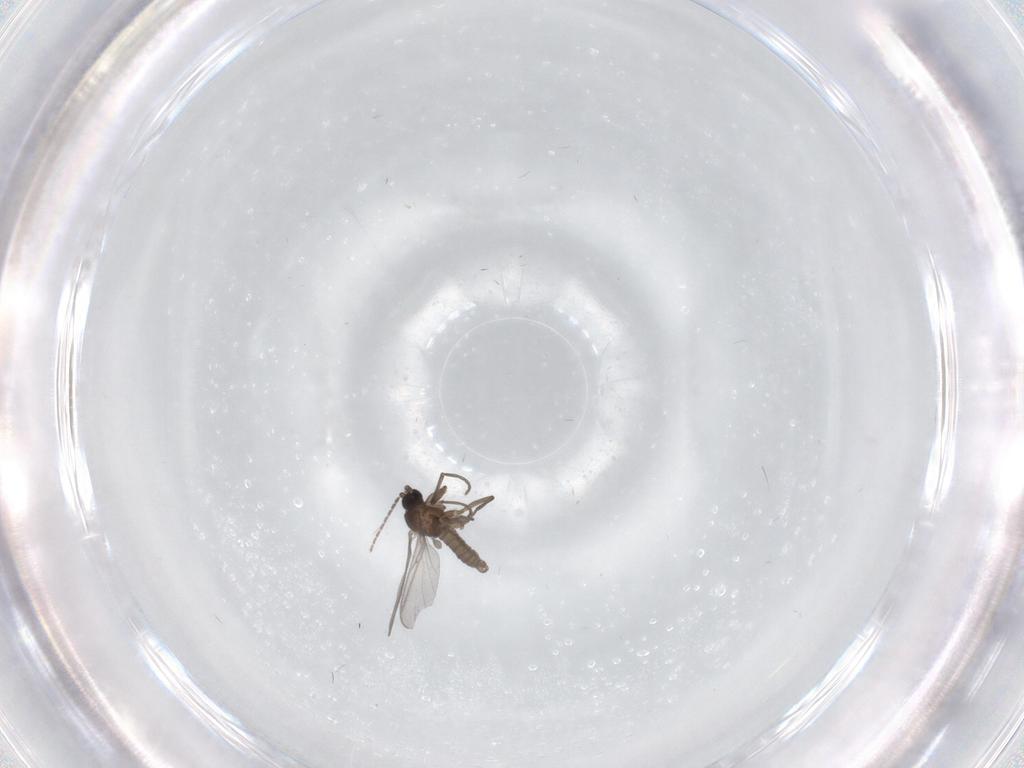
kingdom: Animalia
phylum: Arthropoda
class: Insecta
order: Diptera
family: Sciaridae
